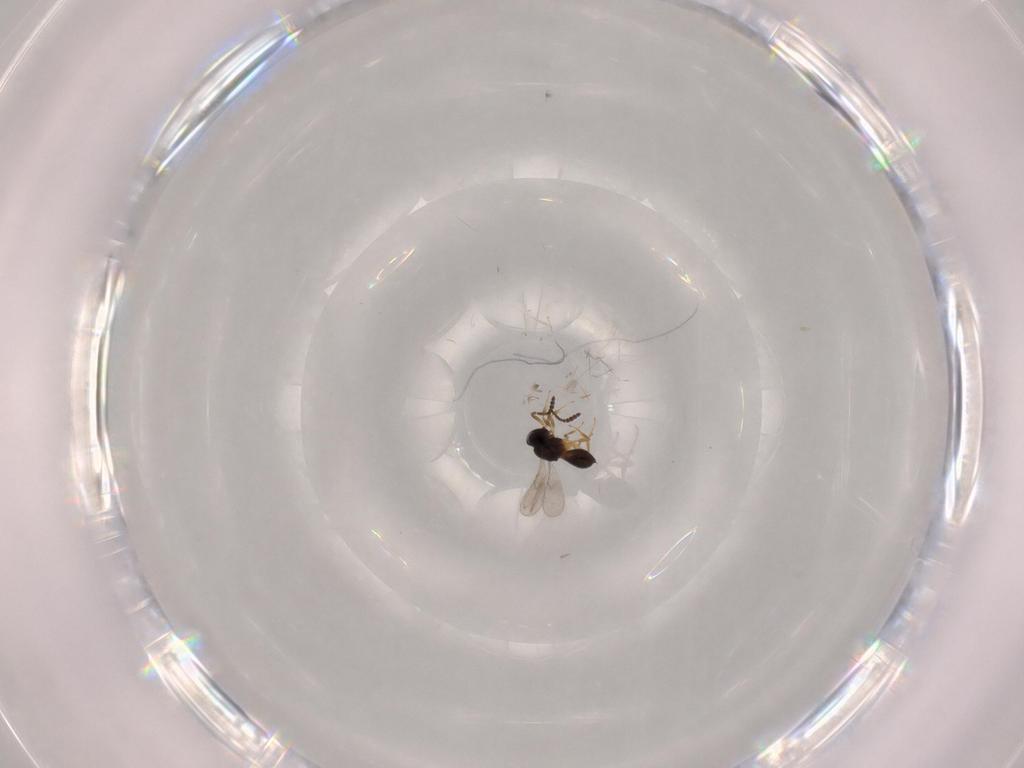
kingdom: Animalia
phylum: Arthropoda
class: Insecta
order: Hymenoptera
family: Scelionidae
